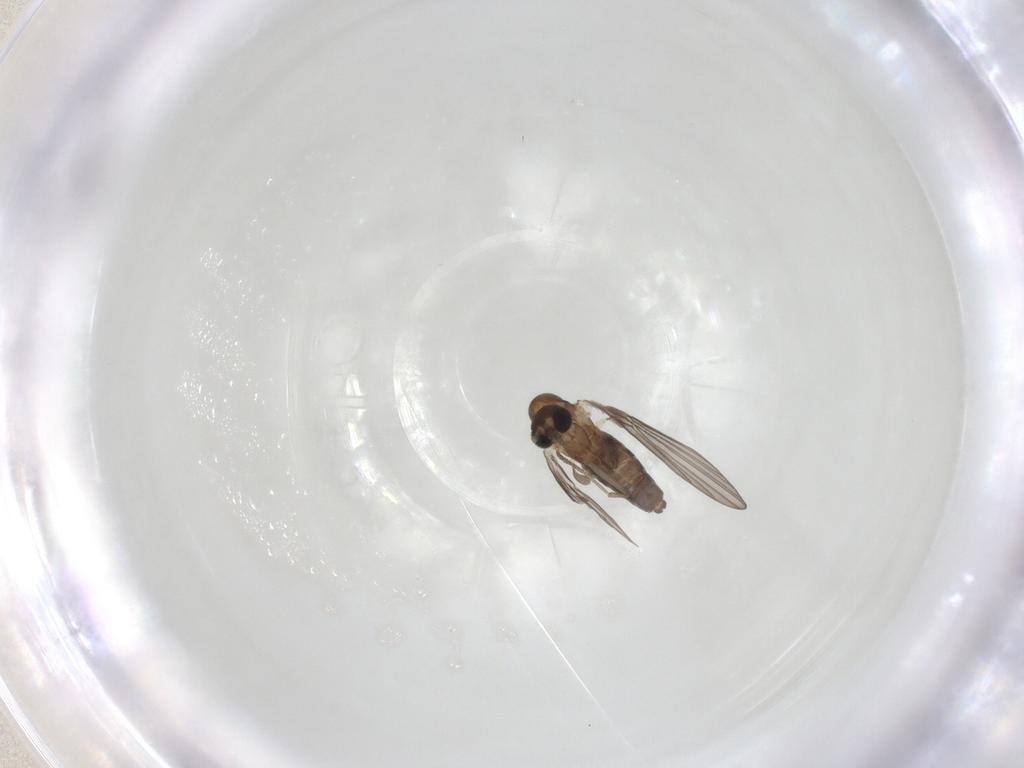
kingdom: Animalia
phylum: Arthropoda
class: Insecta
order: Diptera
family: Psychodidae
